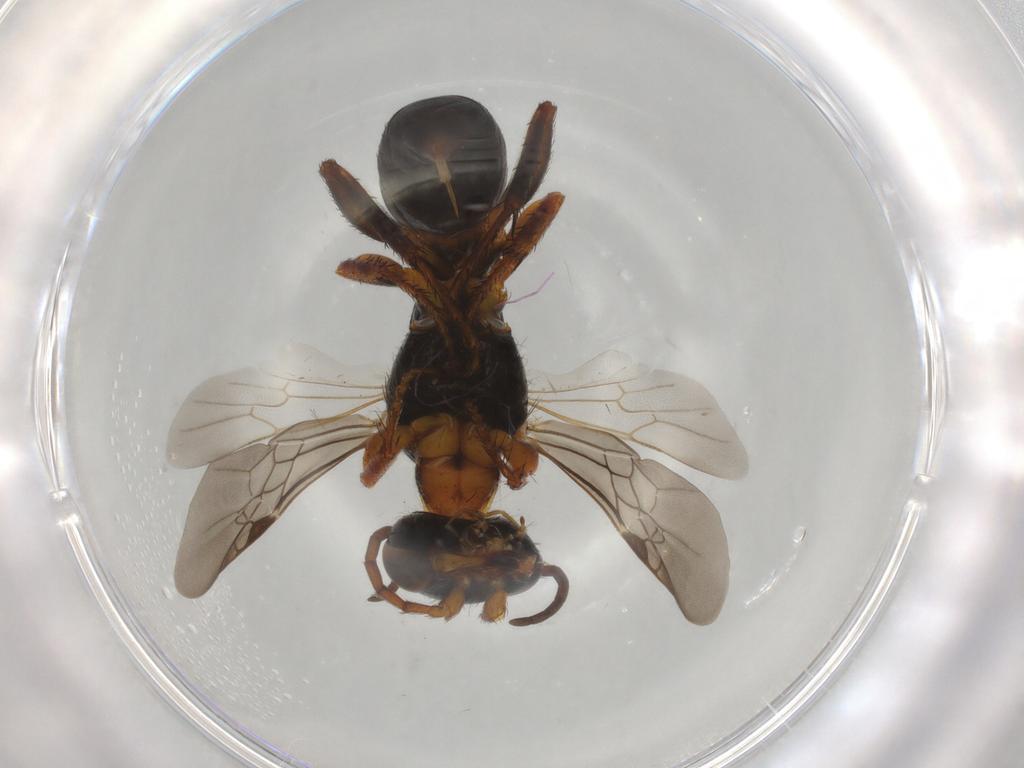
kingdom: Animalia
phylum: Arthropoda
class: Insecta
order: Hymenoptera
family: Crabronidae
